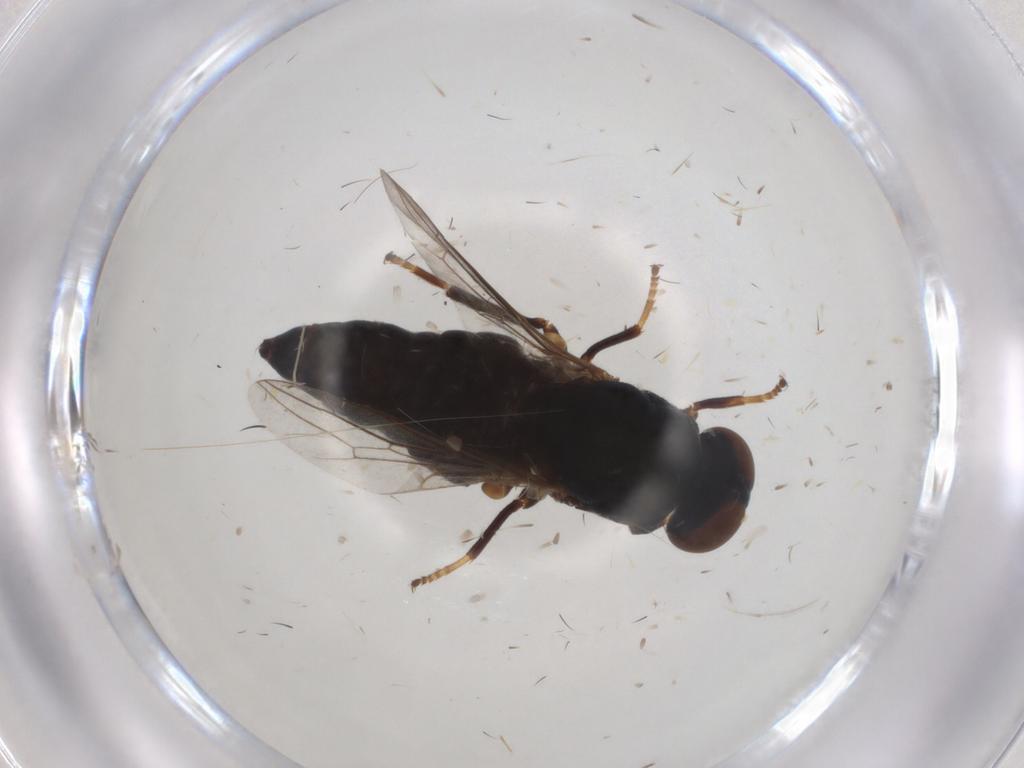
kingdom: Animalia
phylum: Arthropoda
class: Insecta
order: Diptera
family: Scenopinidae
